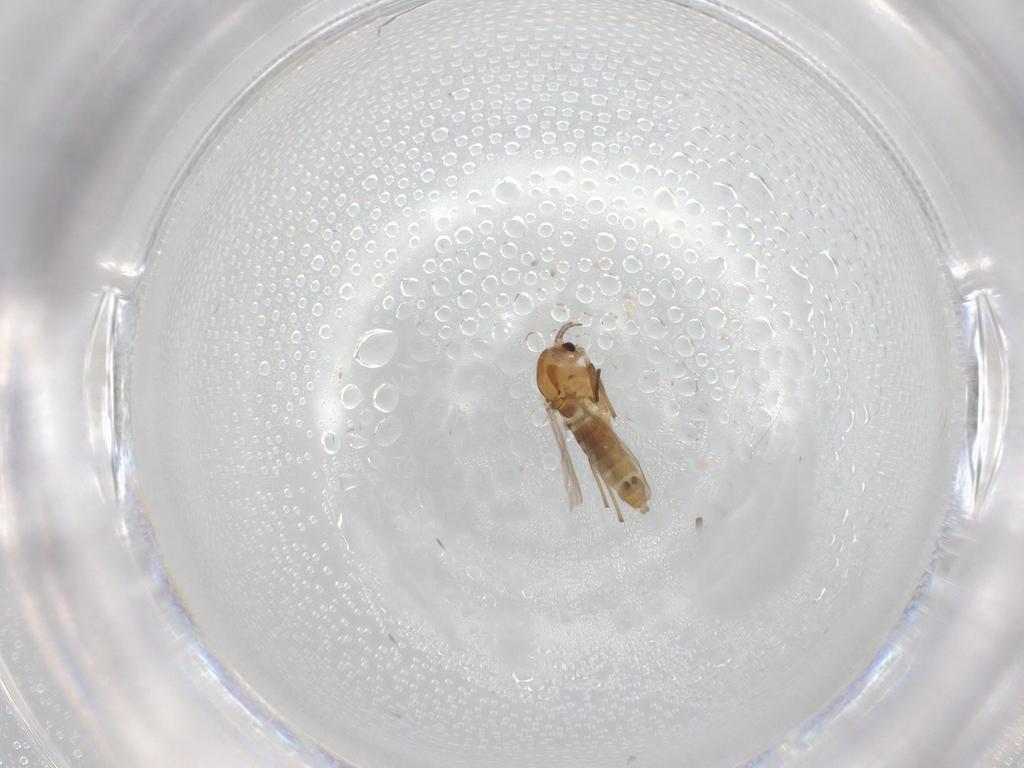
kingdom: Animalia
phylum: Arthropoda
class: Insecta
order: Diptera
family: Chironomidae
